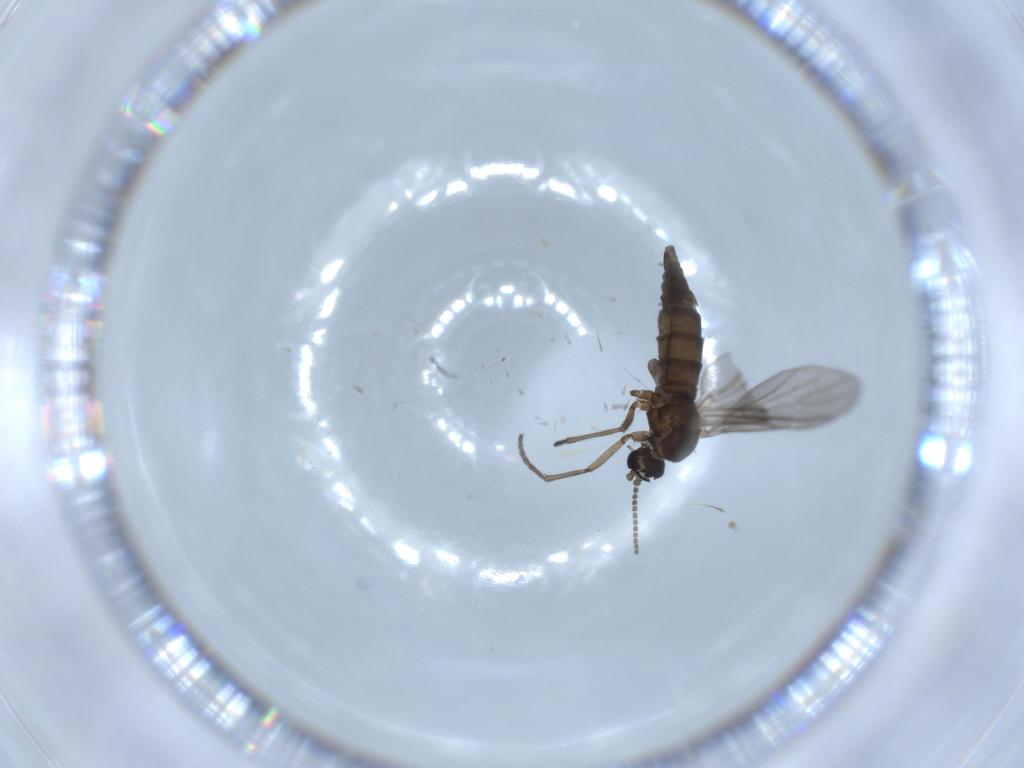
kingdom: Animalia
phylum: Arthropoda
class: Insecta
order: Diptera
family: Sciaridae
